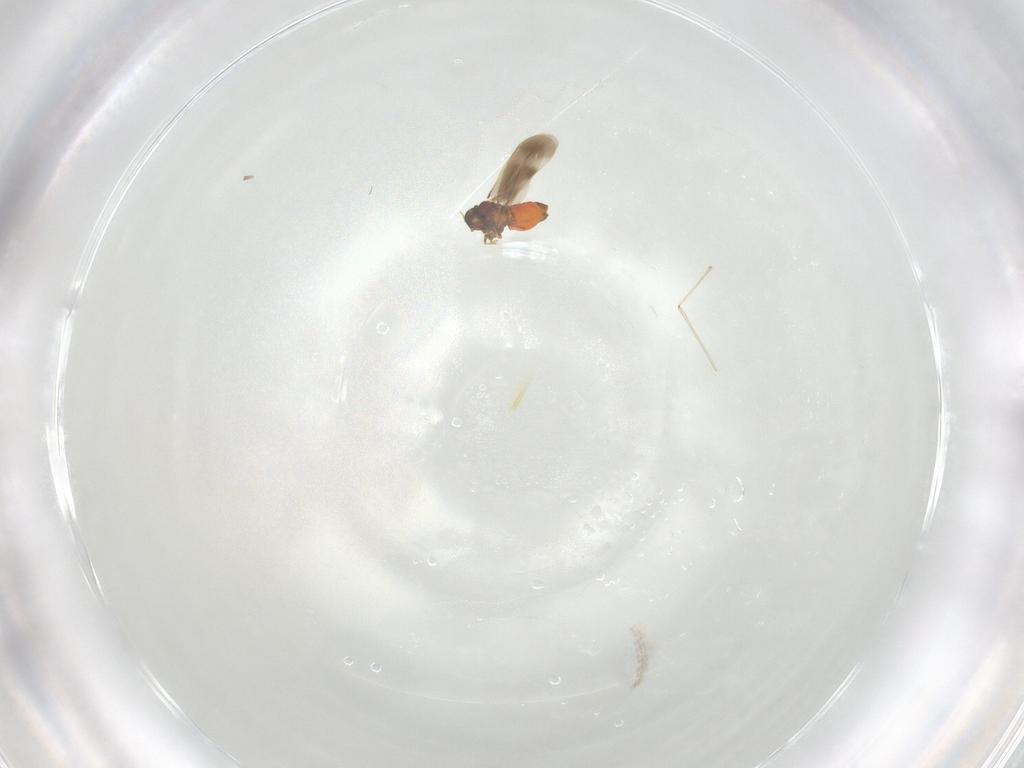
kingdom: Animalia
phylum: Arthropoda
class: Insecta
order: Hemiptera
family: Aleyrodidae
